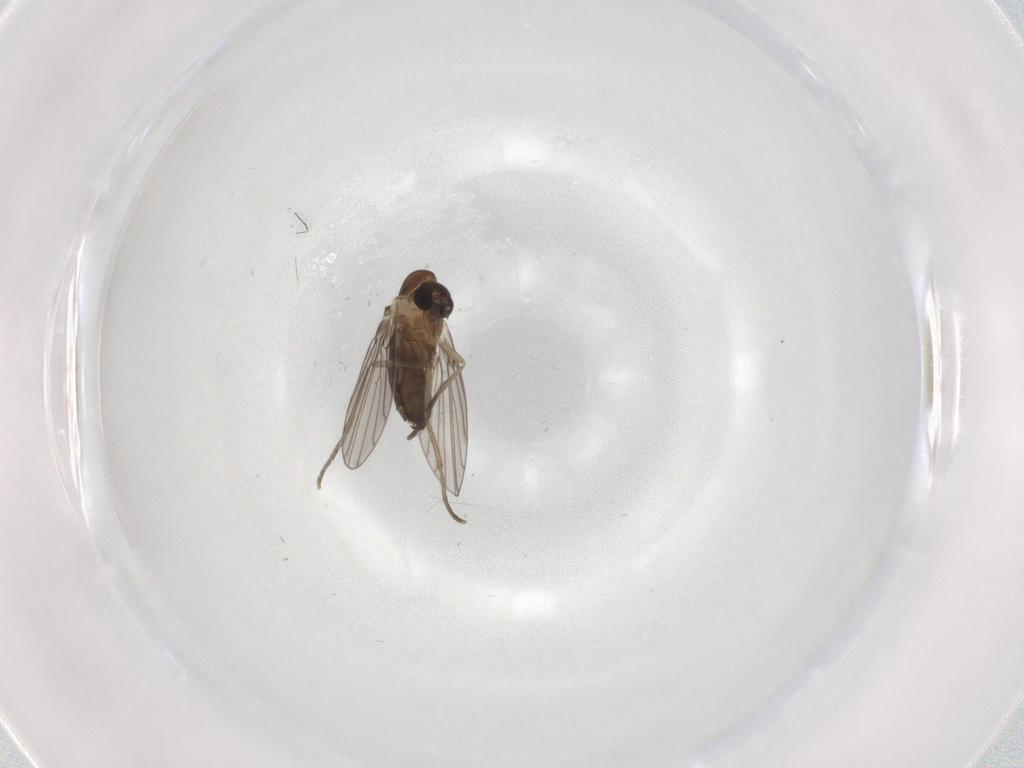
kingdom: Animalia
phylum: Arthropoda
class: Insecta
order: Diptera
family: Psychodidae
